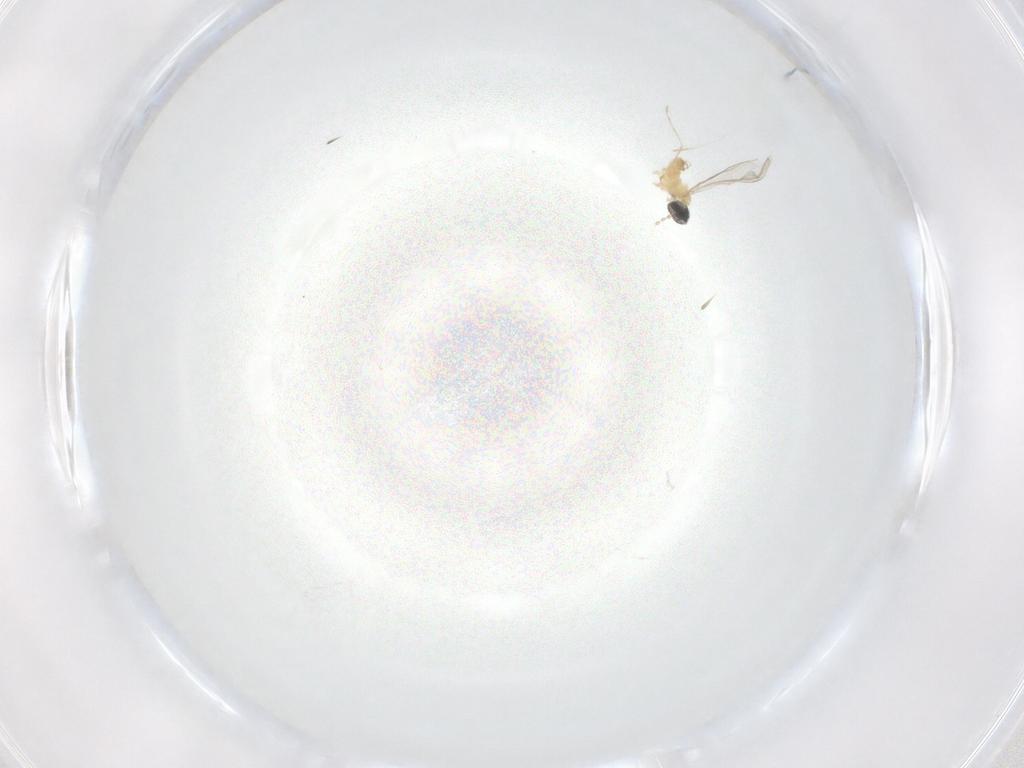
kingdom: Animalia
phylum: Arthropoda
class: Insecta
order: Diptera
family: Cecidomyiidae
